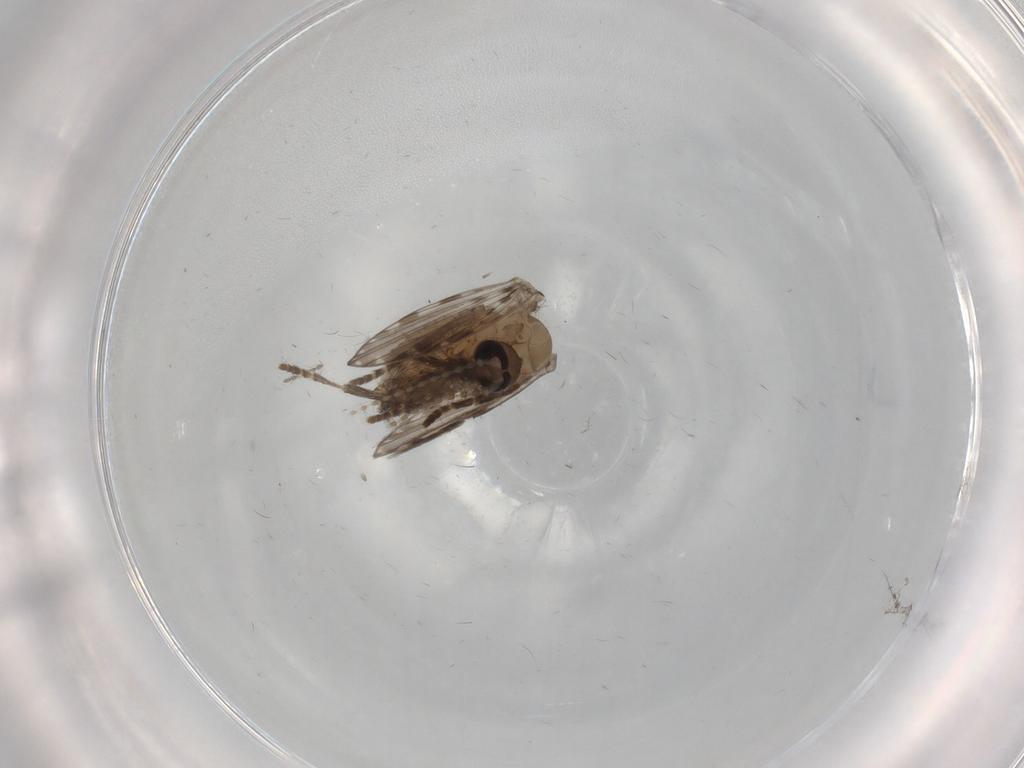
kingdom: Animalia
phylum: Arthropoda
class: Insecta
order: Diptera
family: Psychodidae
